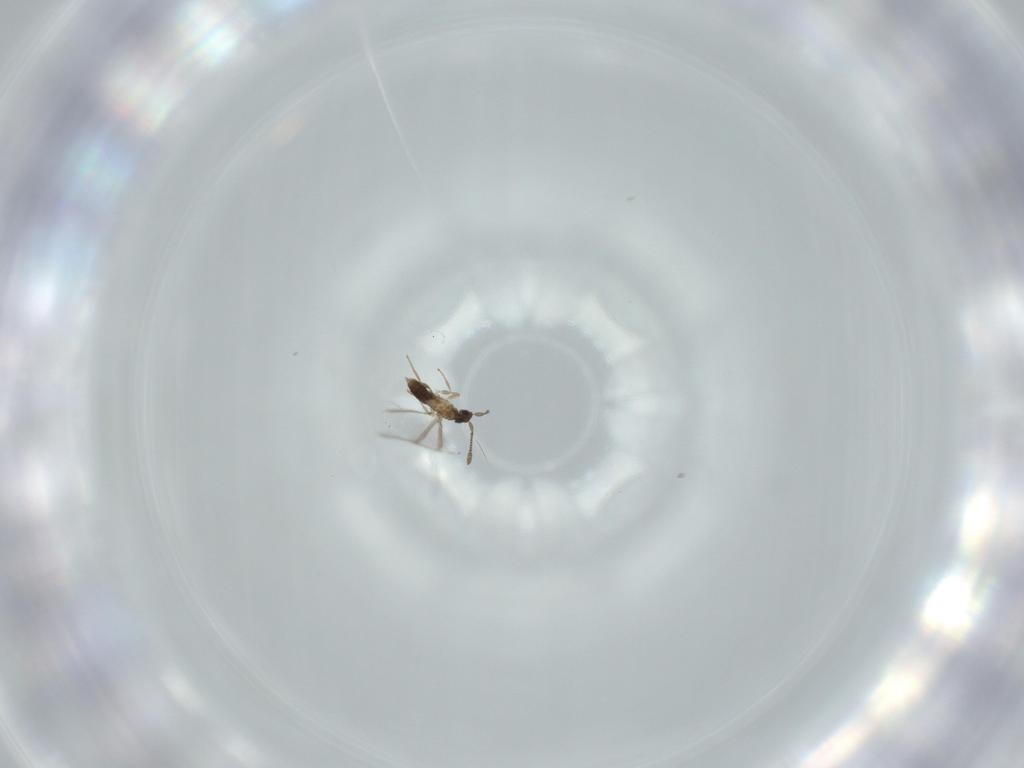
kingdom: Animalia
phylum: Arthropoda
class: Insecta
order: Hymenoptera
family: Mymaridae
